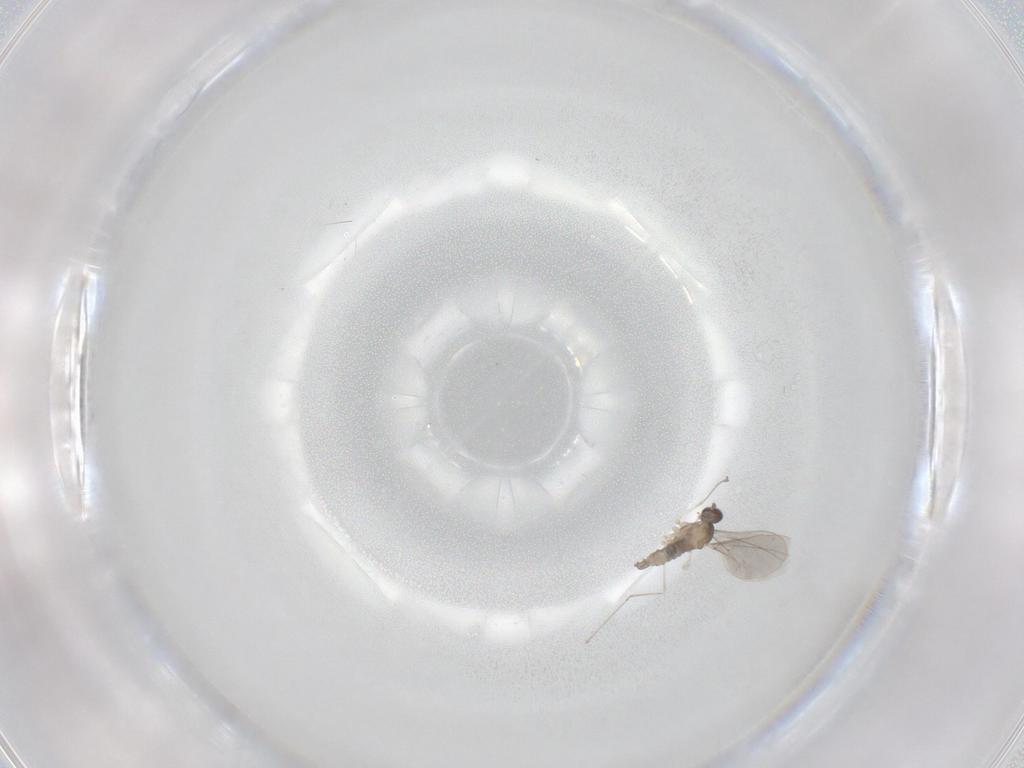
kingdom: Animalia
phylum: Arthropoda
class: Insecta
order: Diptera
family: Cecidomyiidae
